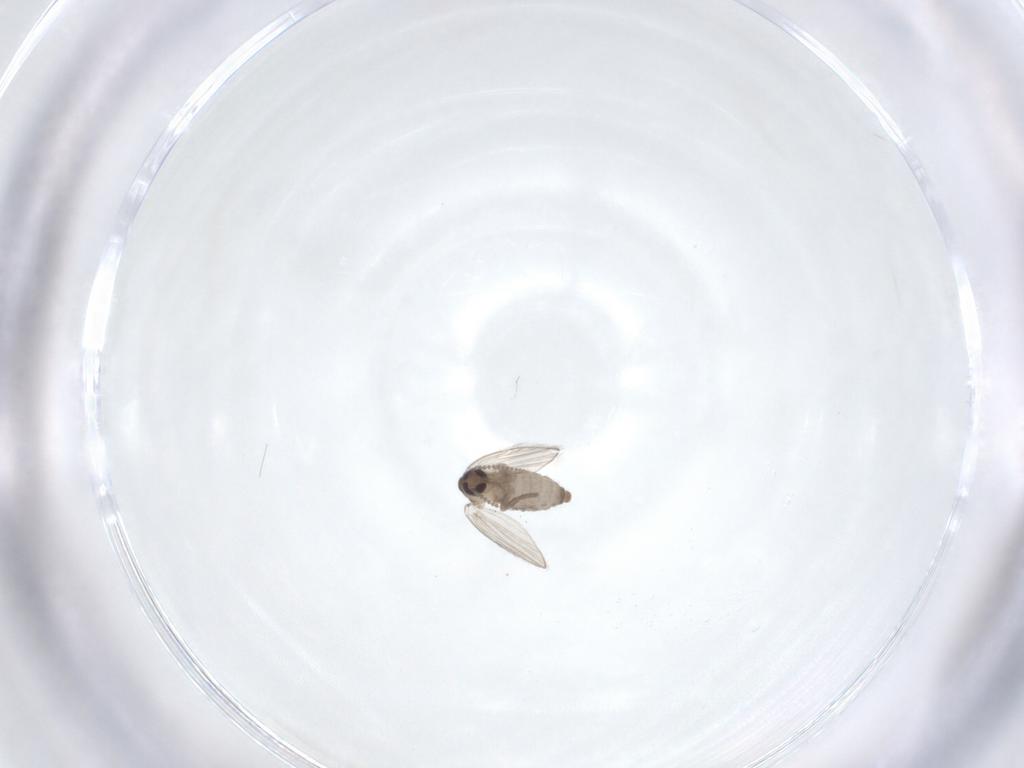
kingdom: Animalia
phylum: Arthropoda
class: Insecta
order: Diptera
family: Psychodidae
